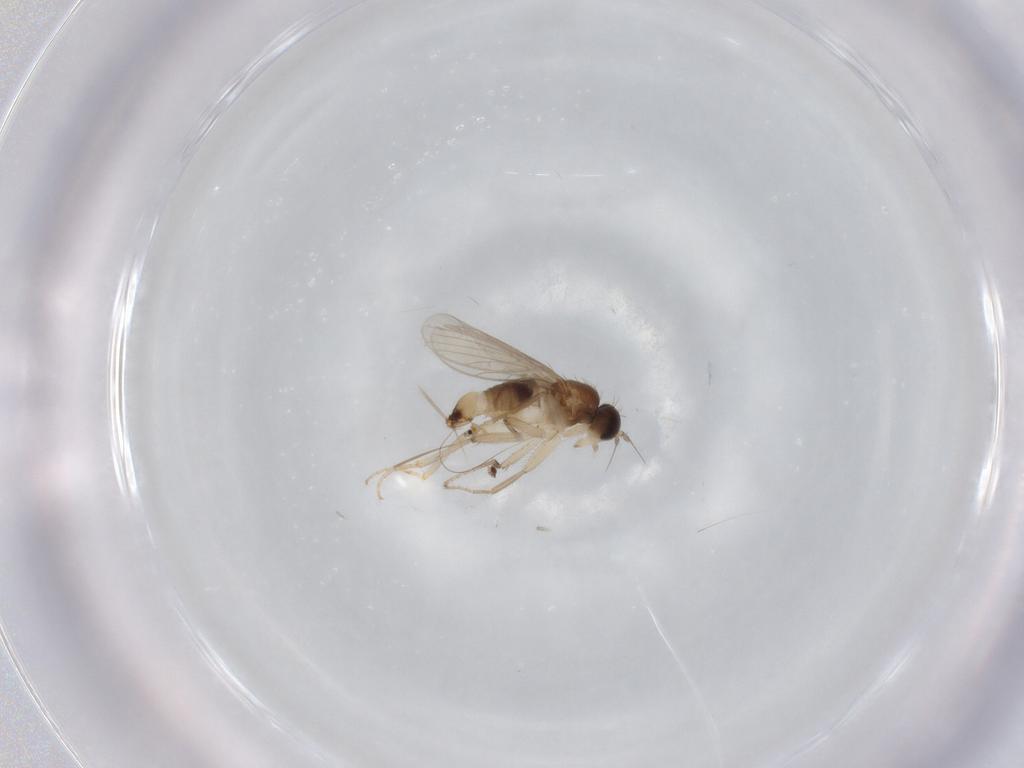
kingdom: Animalia
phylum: Arthropoda
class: Insecta
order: Diptera
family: Hybotidae
